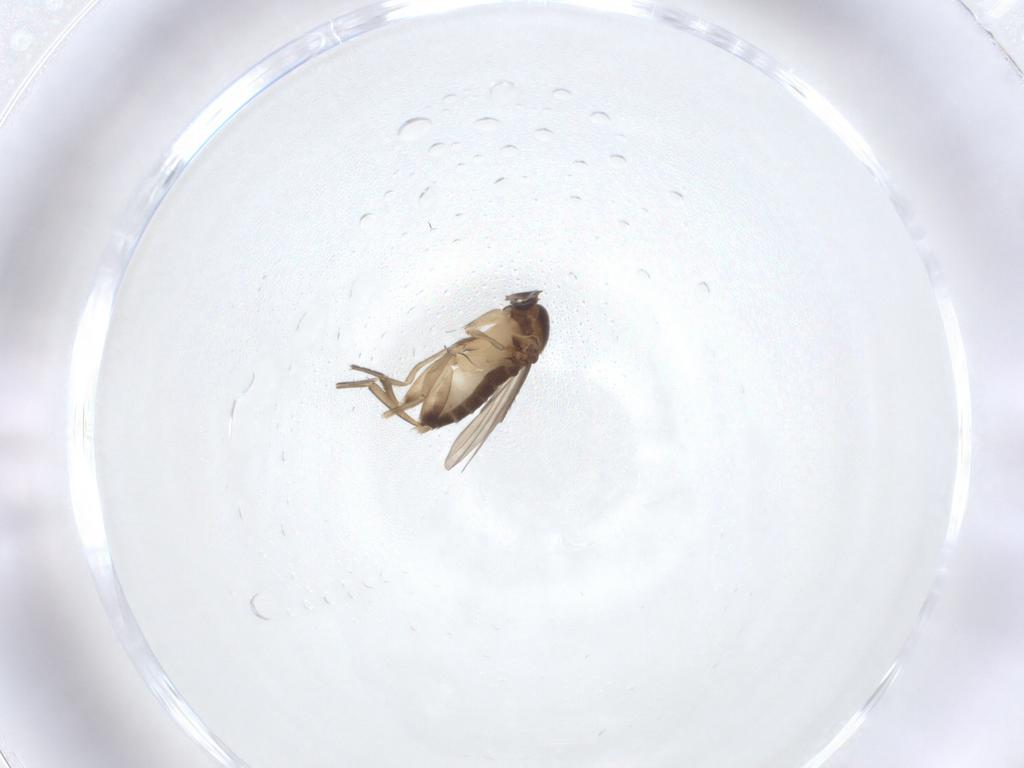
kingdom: Animalia
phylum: Arthropoda
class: Insecta
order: Diptera
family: Phoridae
